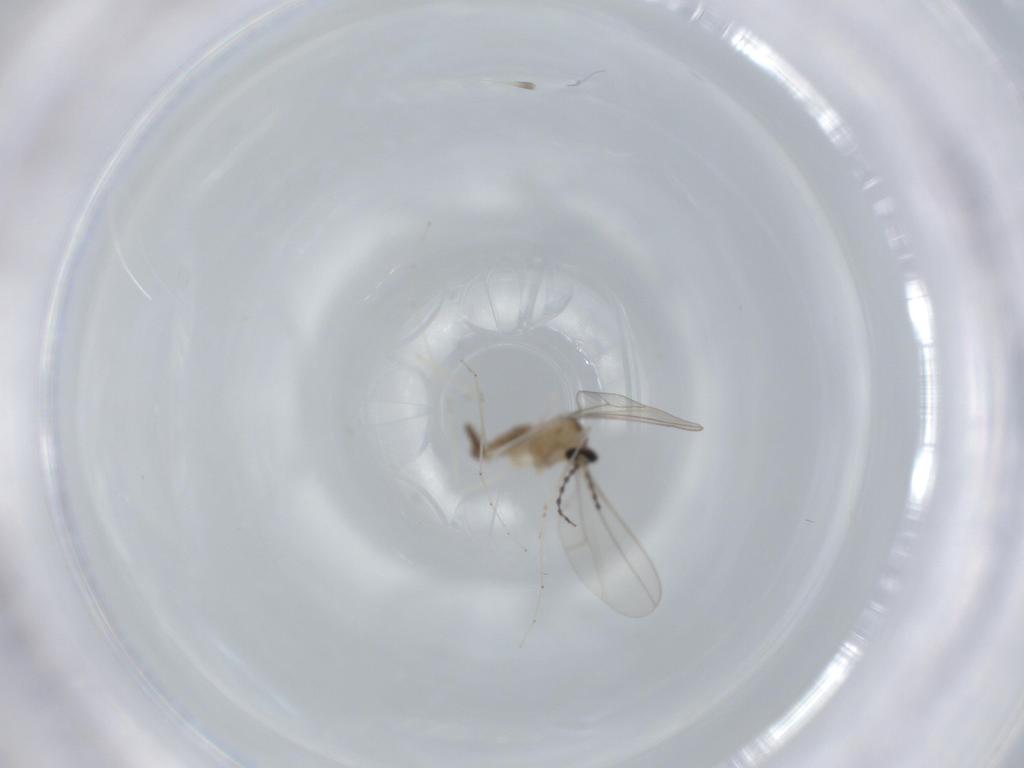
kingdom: Animalia
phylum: Arthropoda
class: Insecta
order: Diptera
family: Cecidomyiidae
